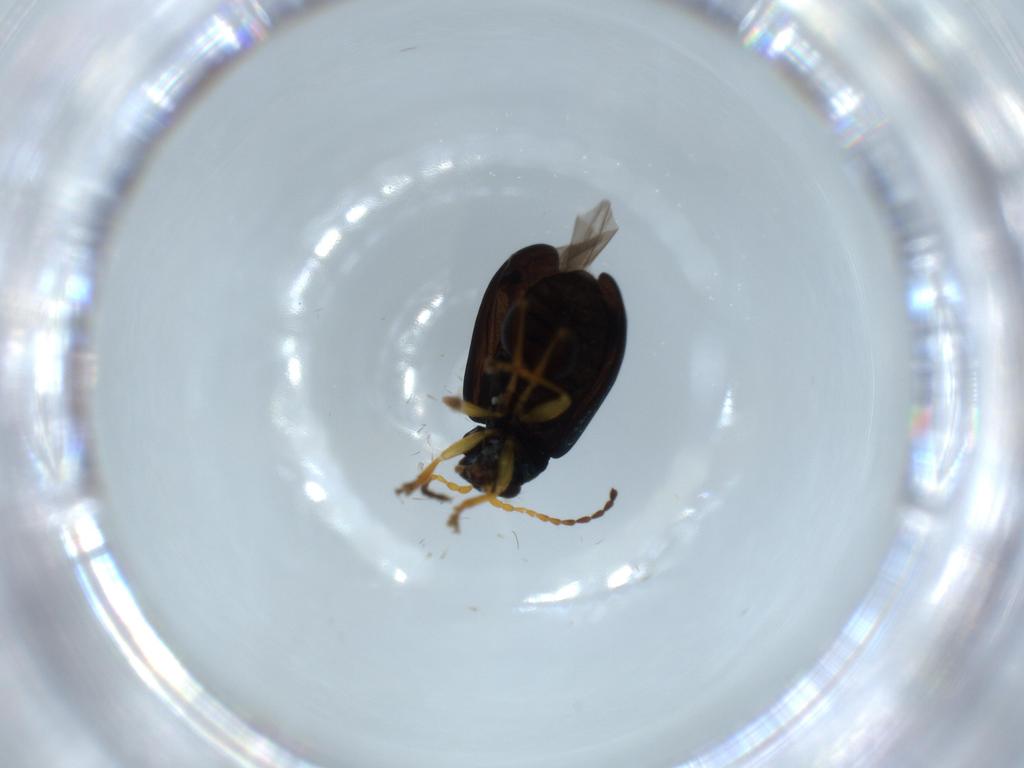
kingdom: Animalia
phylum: Arthropoda
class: Insecta
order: Coleoptera
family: Chrysomelidae
